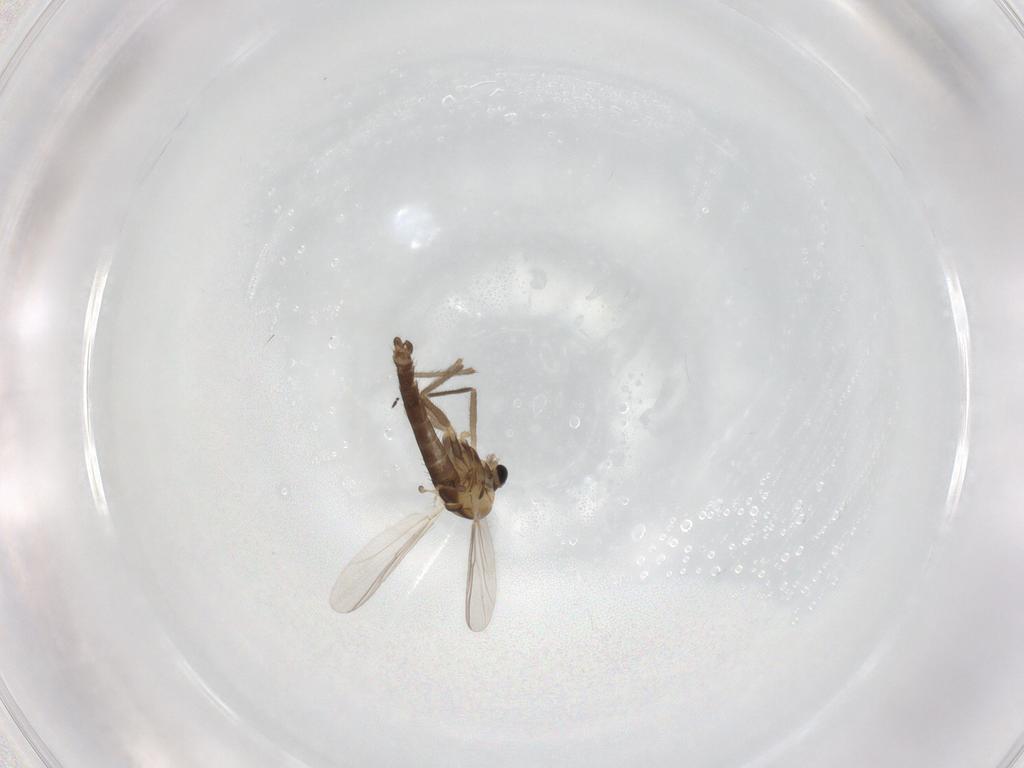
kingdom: Animalia
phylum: Arthropoda
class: Insecta
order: Diptera
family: Chironomidae
